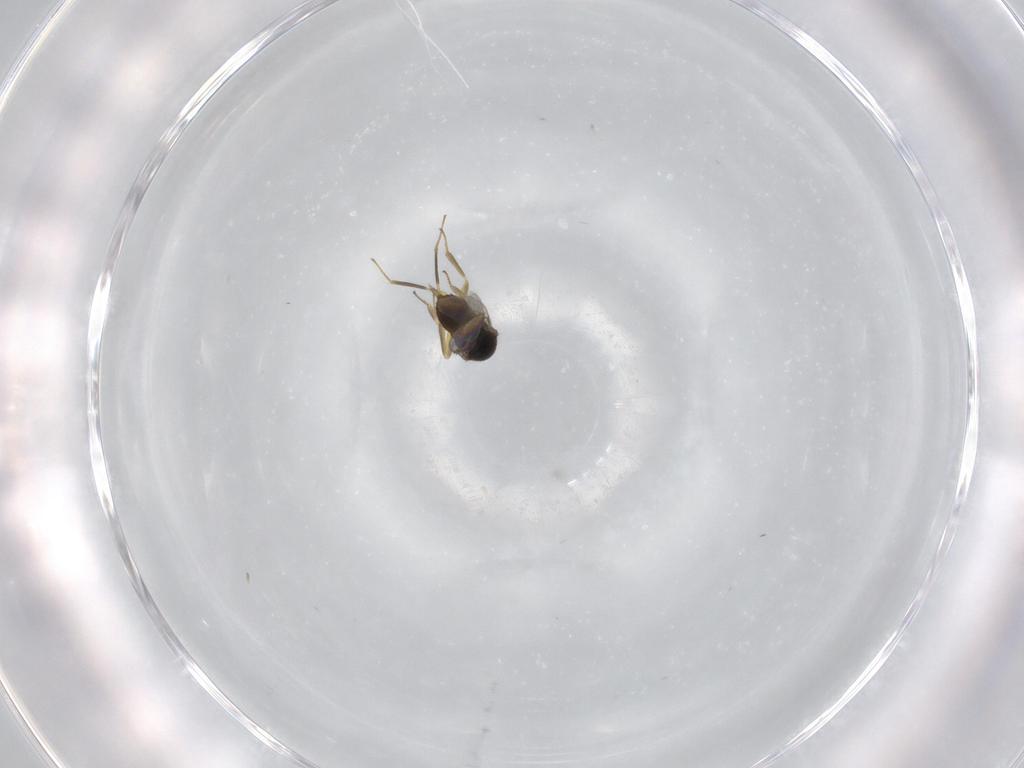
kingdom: Animalia
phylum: Arthropoda
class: Insecta
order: Hymenoptera
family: Aphelinidae
